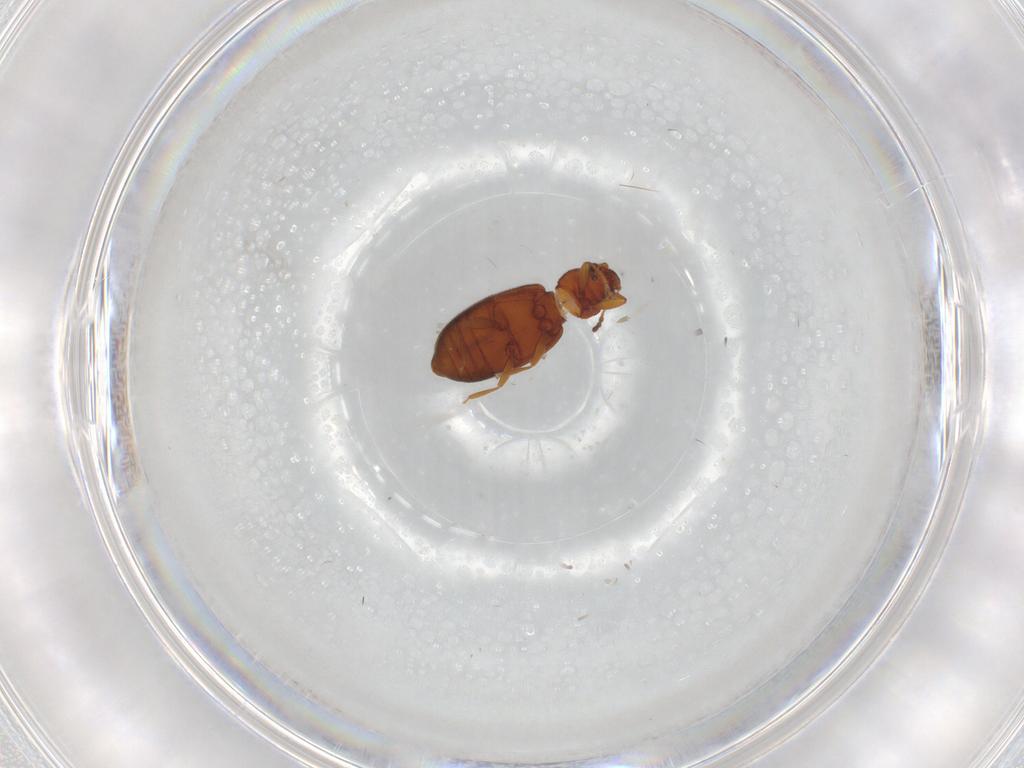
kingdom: Animalia
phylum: Arthropoda
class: Insecta
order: Coleoptera
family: Latridiidae
